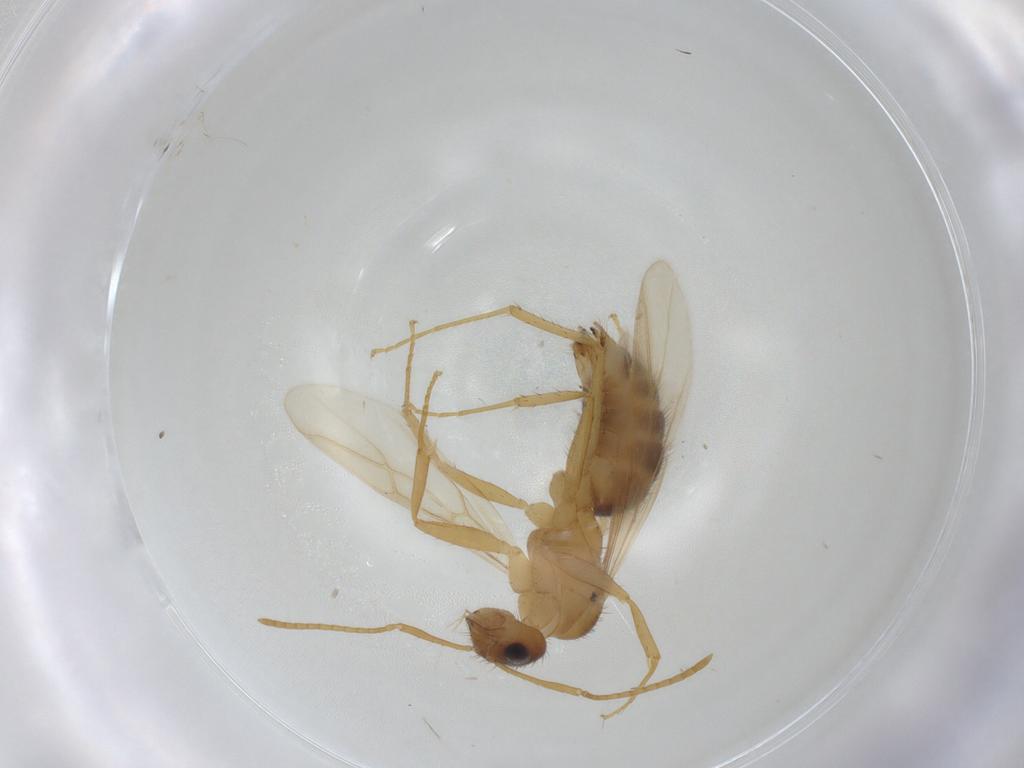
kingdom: Animalia
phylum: Arthropoda
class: Insecta
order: Hymenoptera
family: Formicidae
